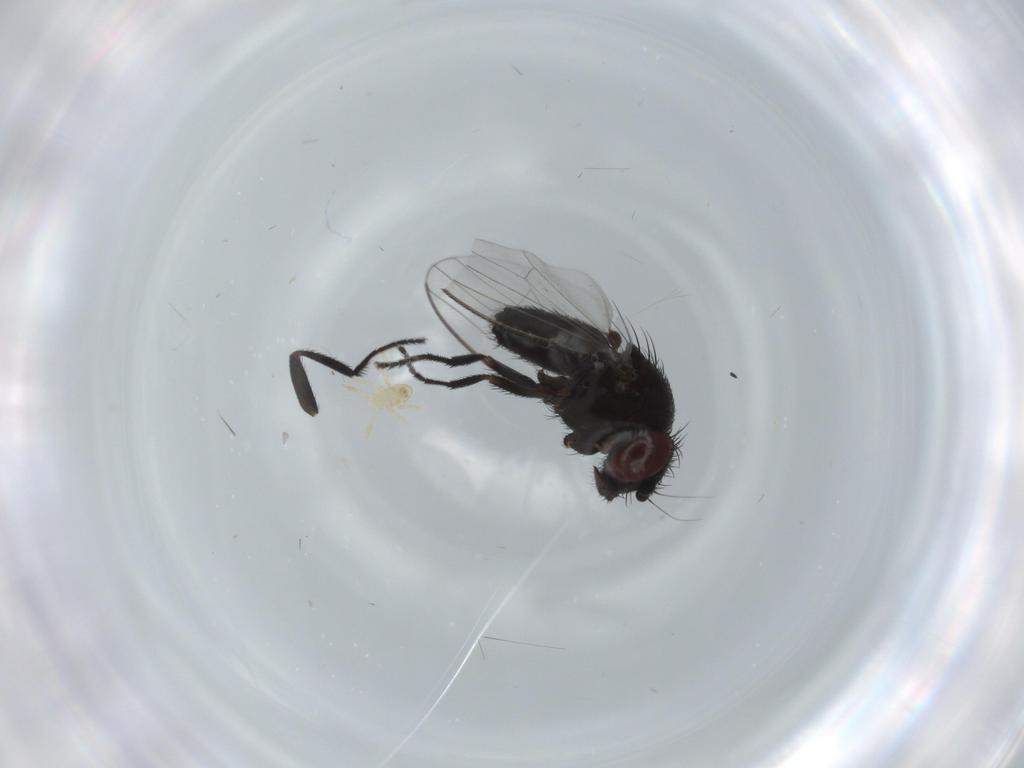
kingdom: Animalia
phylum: Arthropoda
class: Insecta
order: Diptera
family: Milichiidae
